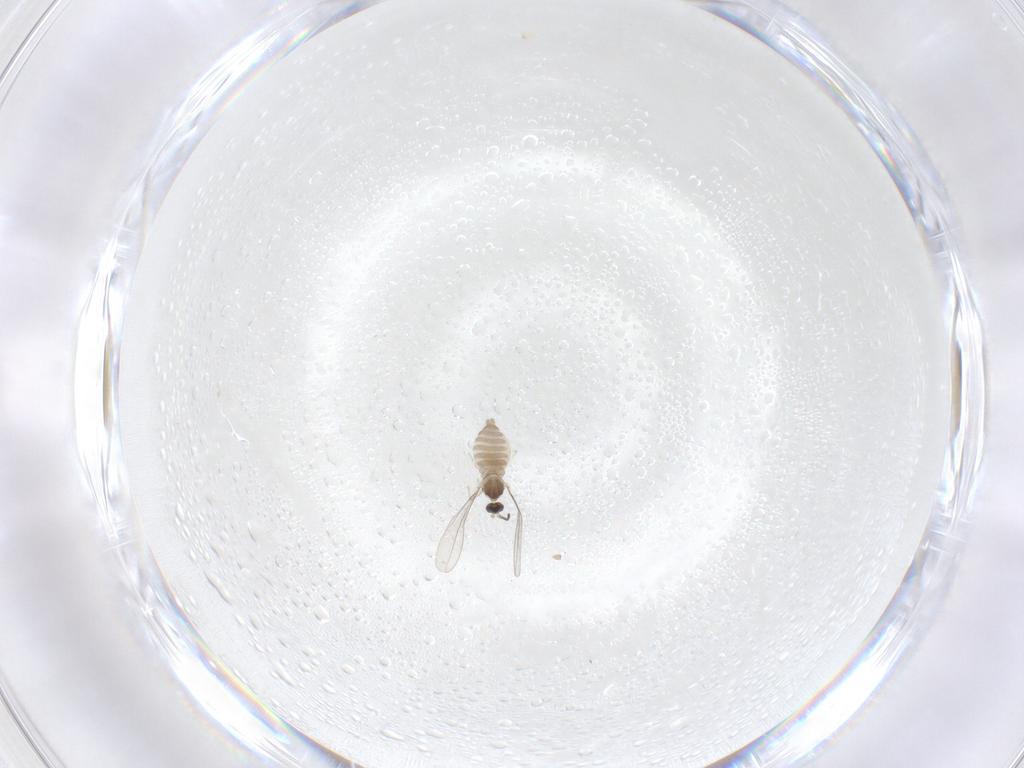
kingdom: Animalia
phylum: Arthropoda
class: Insecta
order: Diptera
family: Cecidomyiidae
